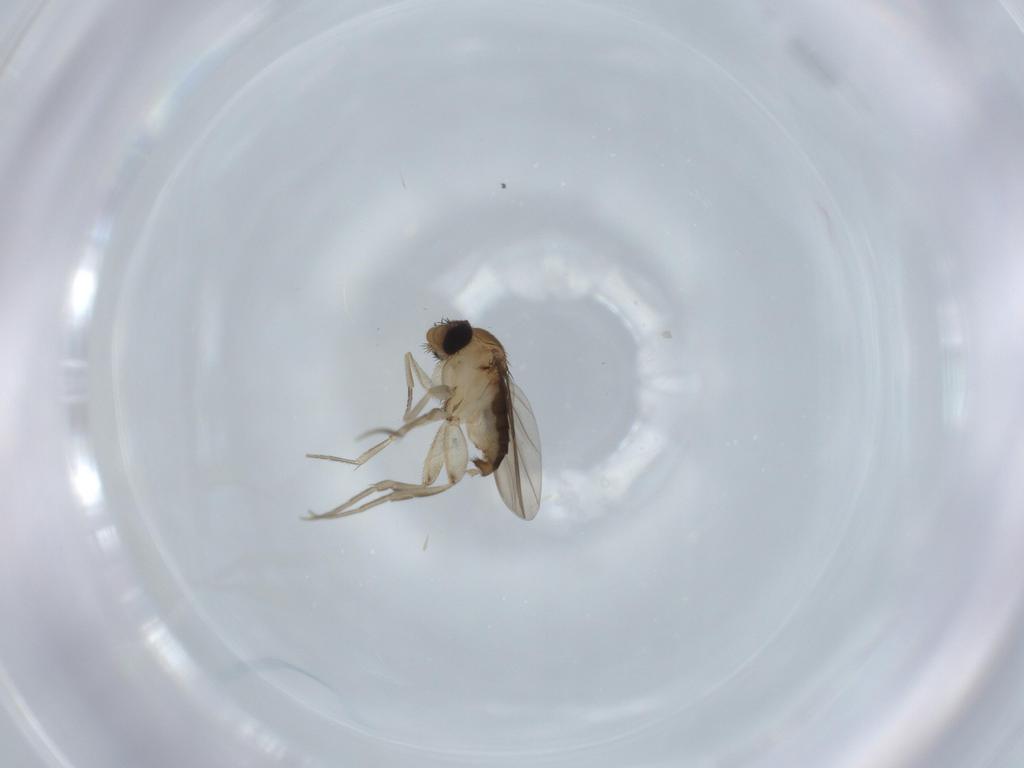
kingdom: Animalia
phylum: Arthropoda
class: Insecta
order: Diptera
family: Phoridae
